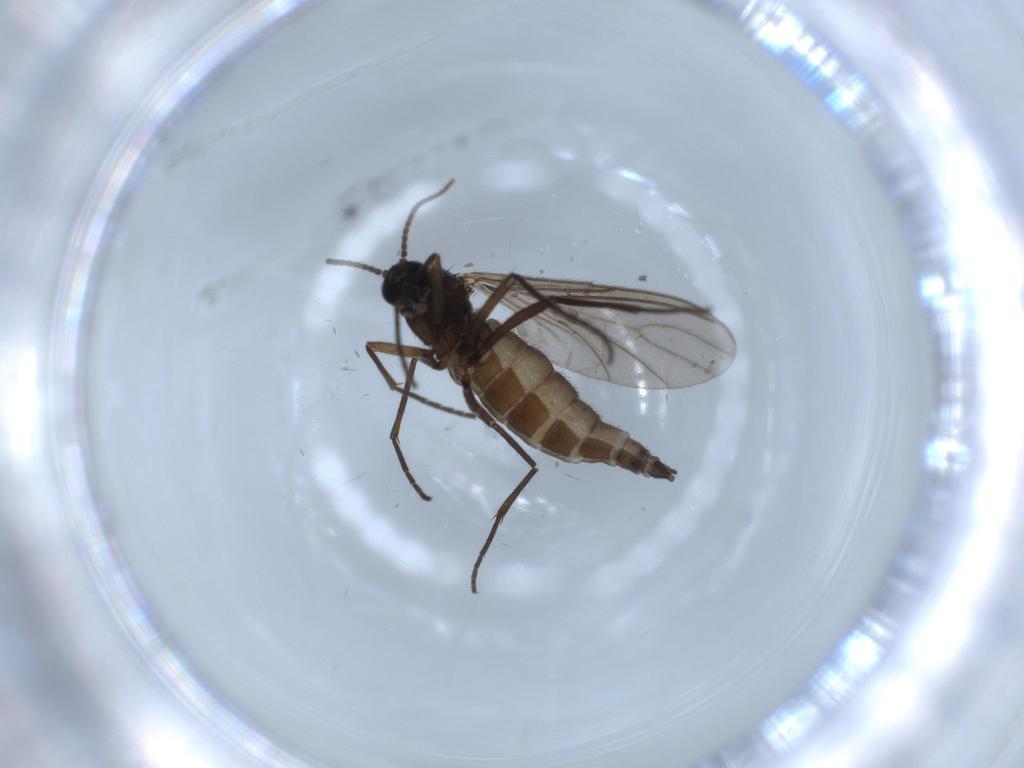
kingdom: Animalia
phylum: Arthropoda
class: Insecta
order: Diptera
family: Sciaridae
